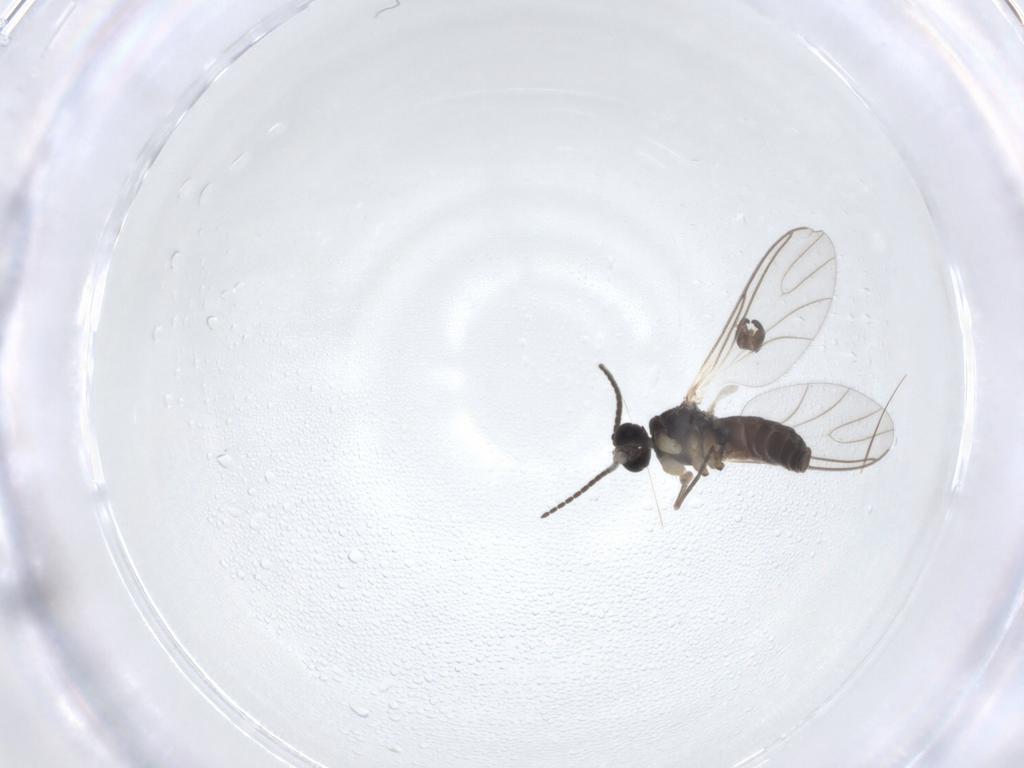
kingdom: Animalia
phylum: Arthropoda
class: Insecta
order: Diptera
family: Sciaridae
